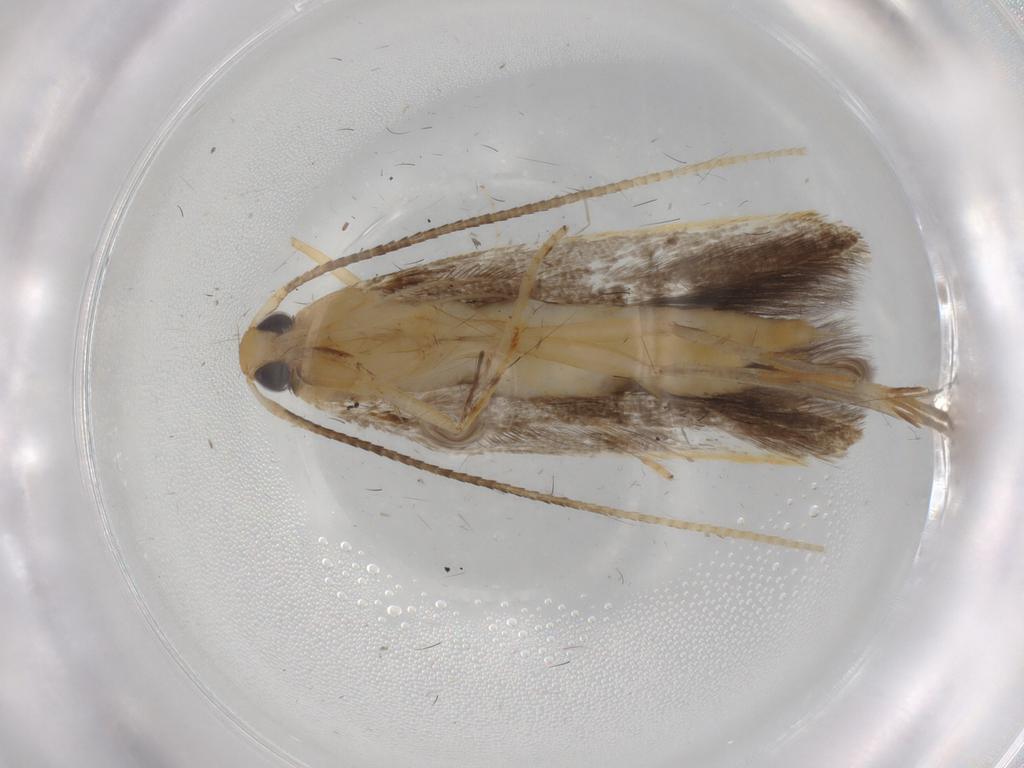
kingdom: Animalia
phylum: Arthropoda
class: Insecta
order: Lepidoptera
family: Pterolonchidae
